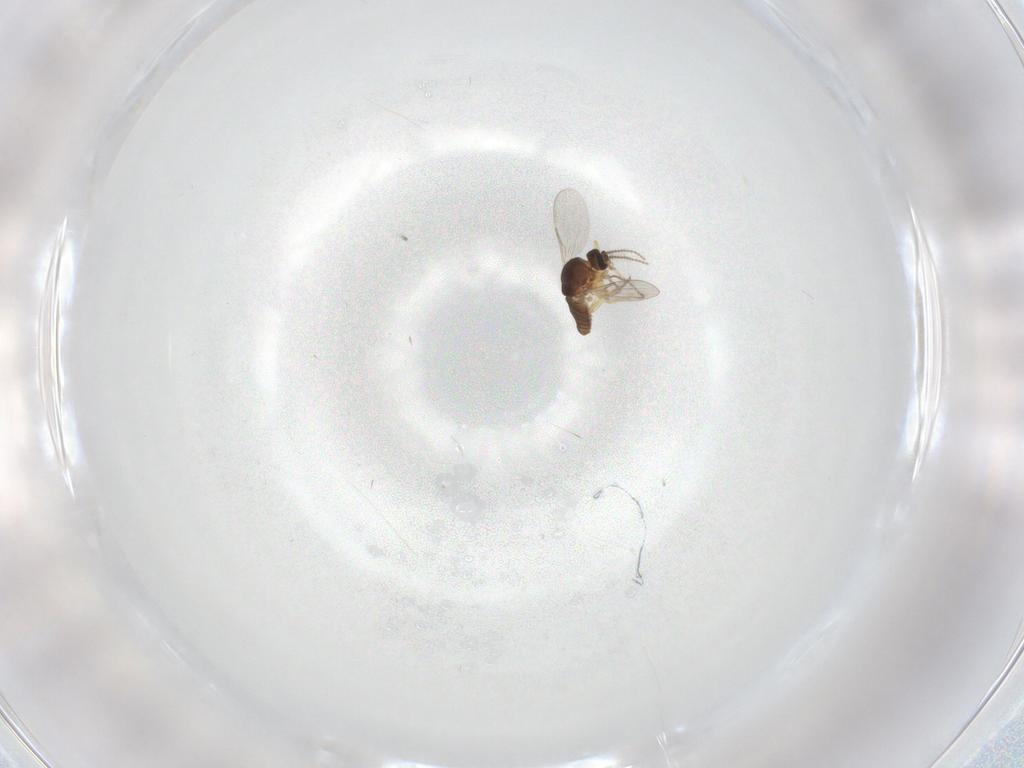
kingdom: Animalia
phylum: Arthropoda
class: Insecta
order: Diptera
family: Ceratopogonidae
